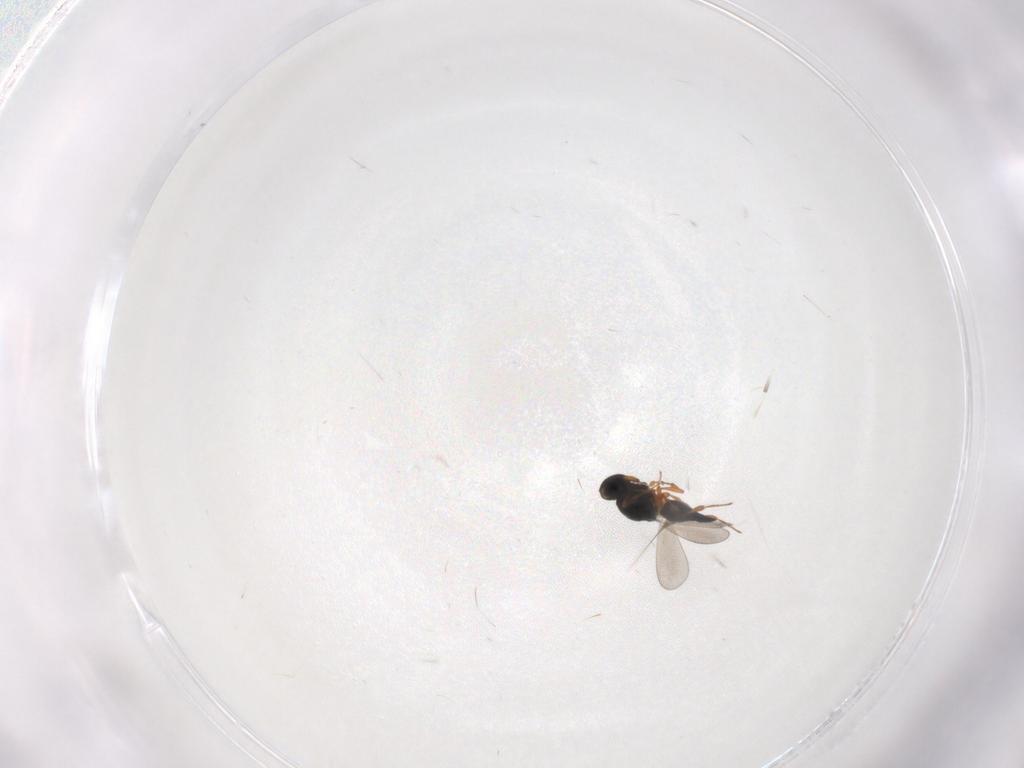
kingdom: Animalia
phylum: Arthropoda
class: Insecta
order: Hymenoptera
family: Platygastridae
